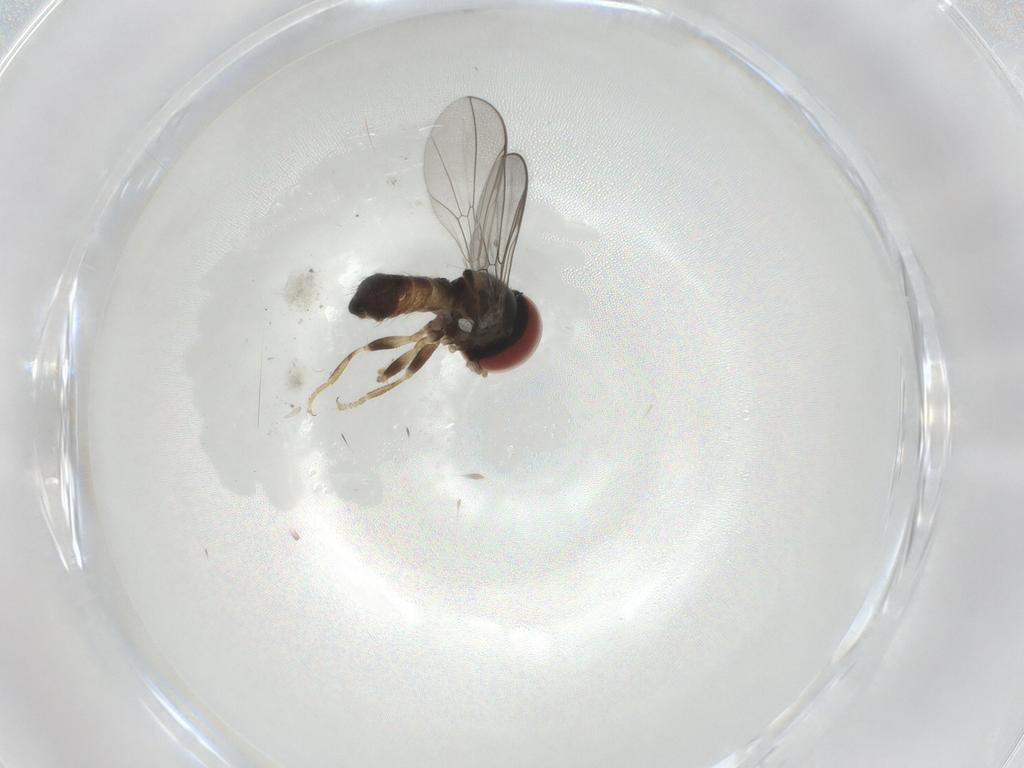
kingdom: Animalia
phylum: Arthropoda
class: Insecta
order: Diptera
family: Pipunculidae
